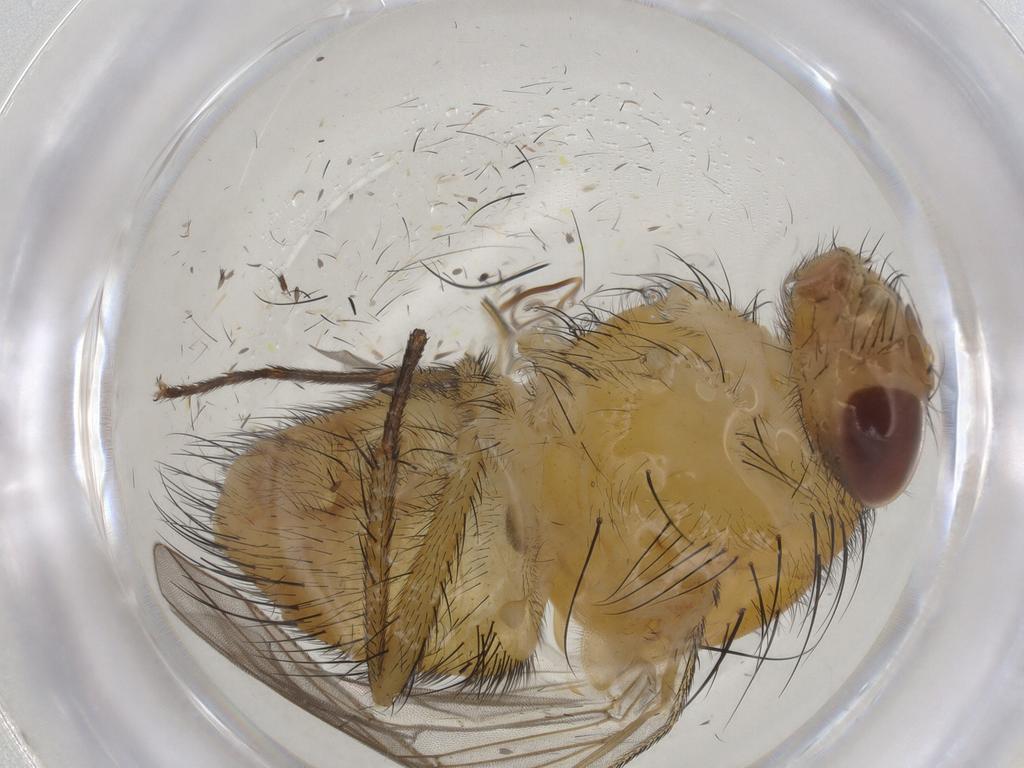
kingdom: Animalia
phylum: Arthropoda
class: Insecta
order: Diptera
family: Muscidae
